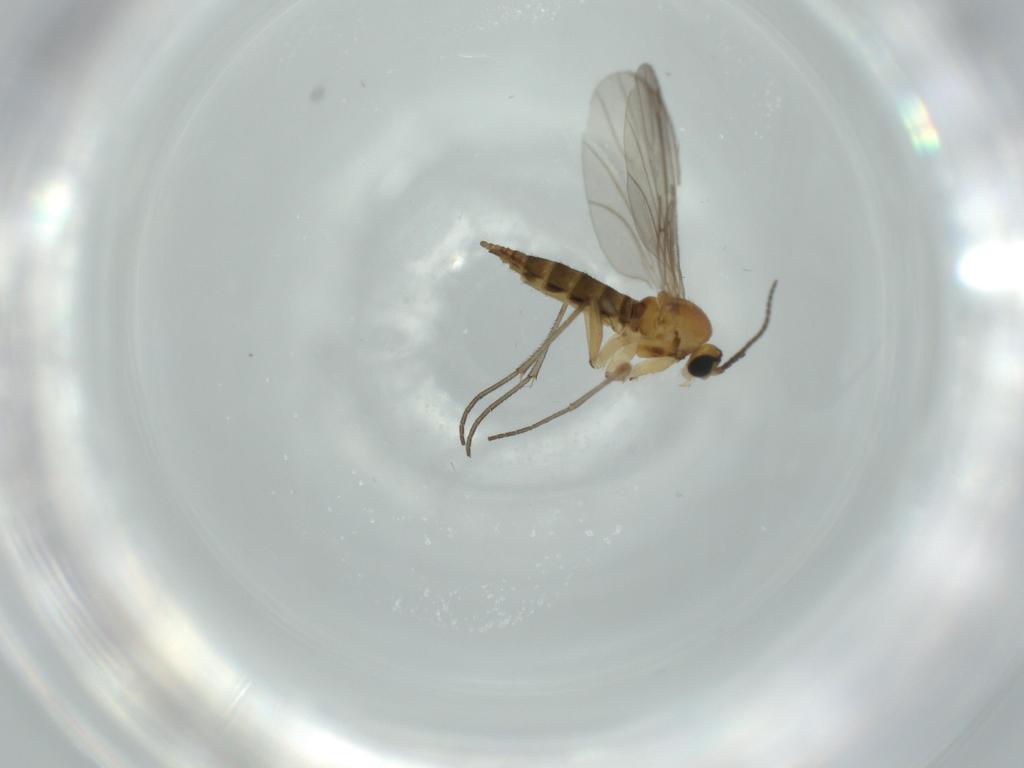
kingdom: Animalia
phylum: Arthropoda
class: Insecta
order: Diptera
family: Sciaridae
